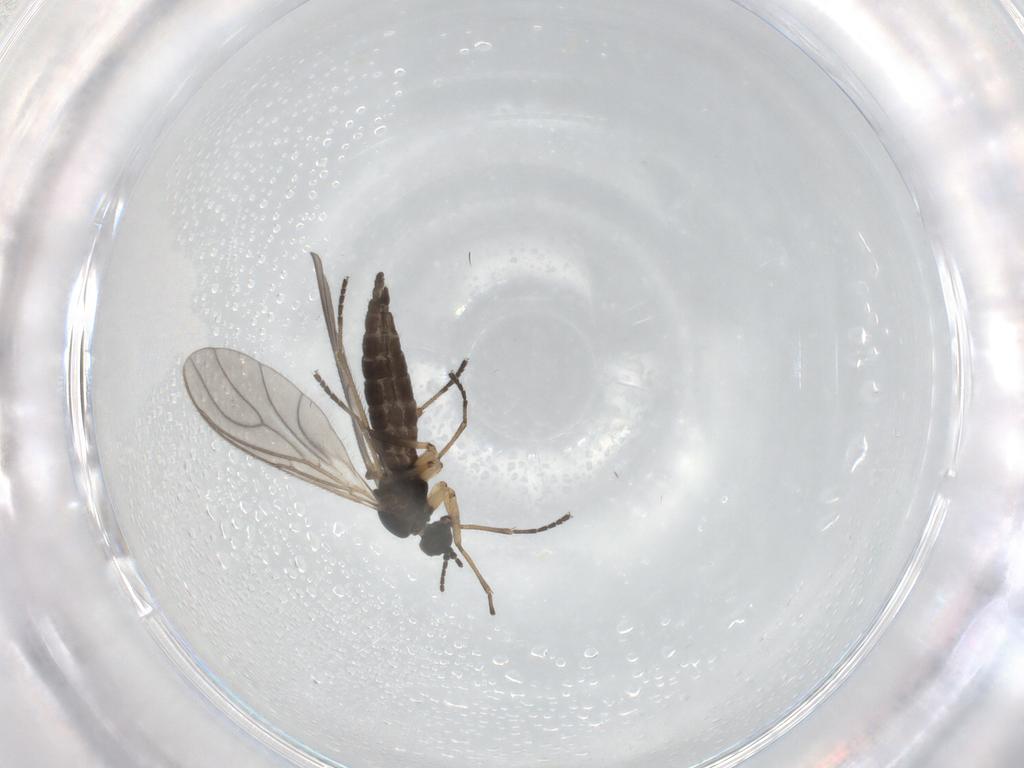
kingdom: Animalia
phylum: Arthropoda
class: Insecta
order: Diptera
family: Sciaridae
